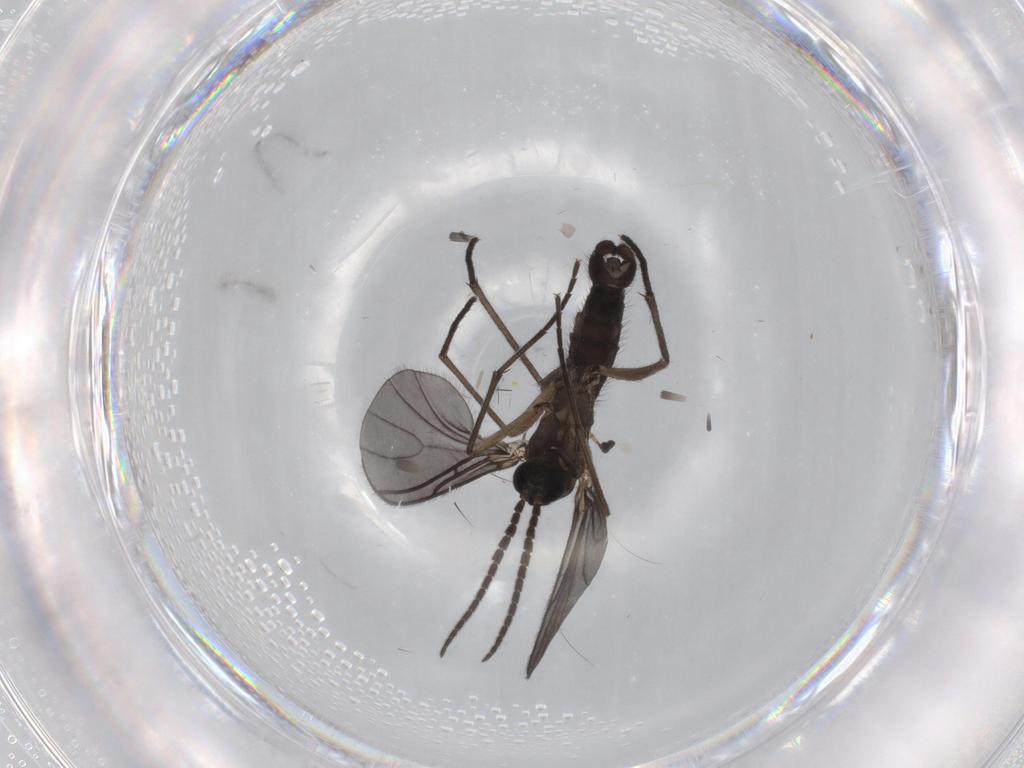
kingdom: Animalia
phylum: Arthropoda
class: Insecta
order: Diptera
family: Sciaridae
